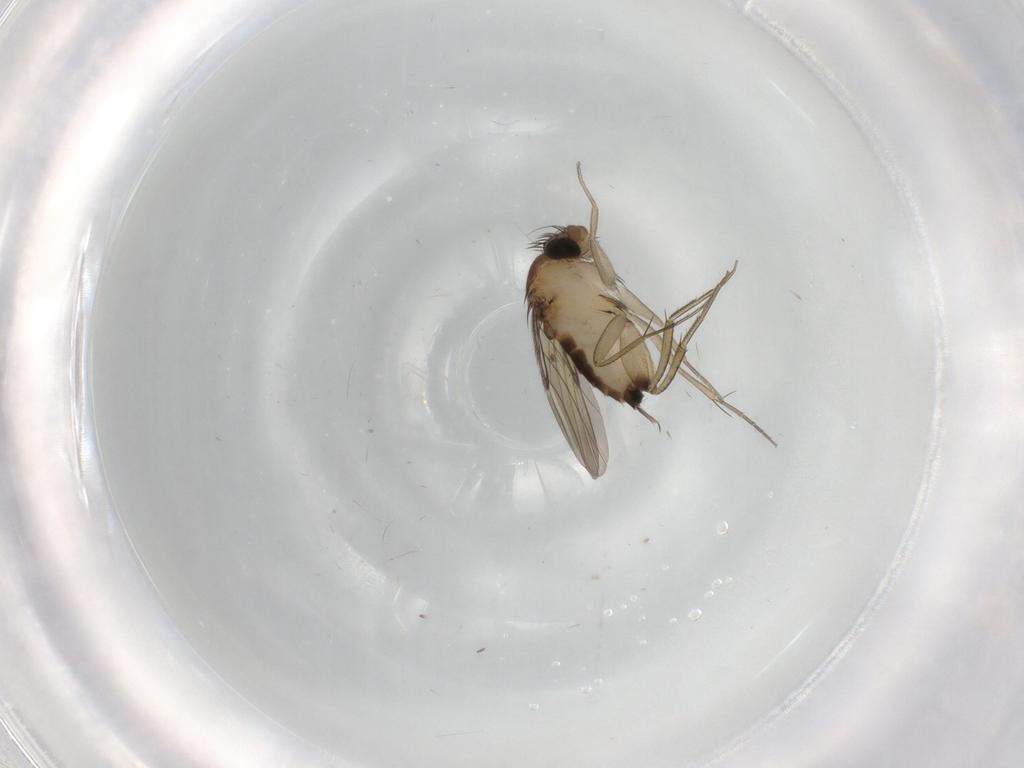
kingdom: Animalia
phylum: Arthropoda
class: Insecta
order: Diptera
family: Phoridae
